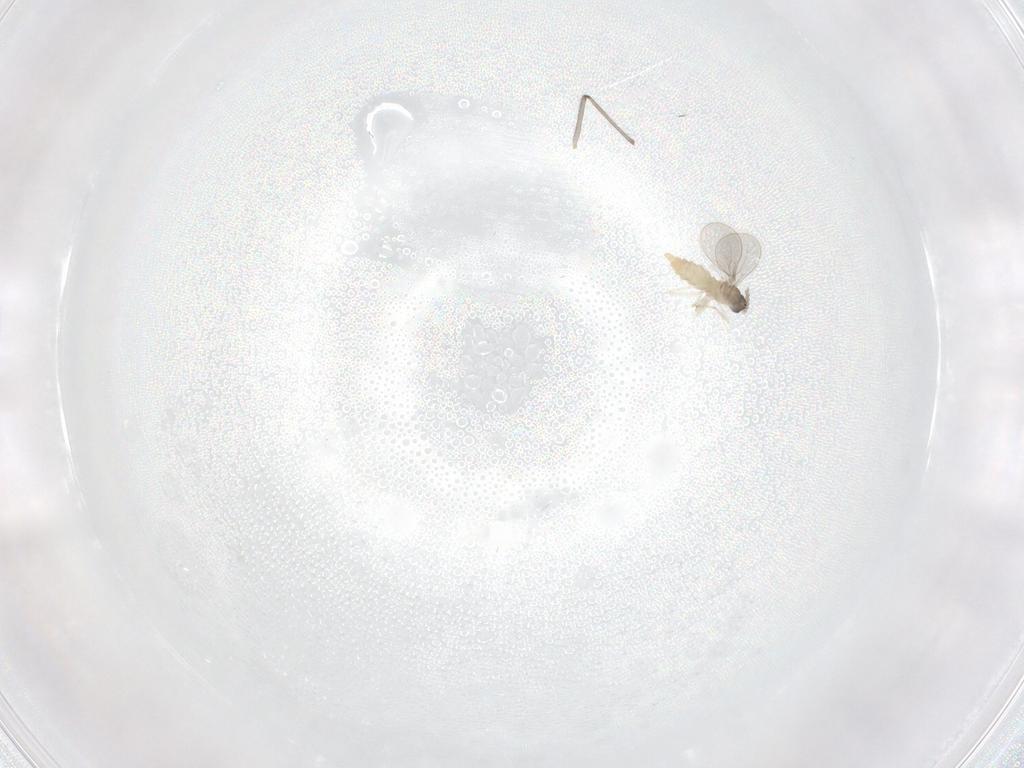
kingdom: Animalia
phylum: Arthropoda
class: Insecta
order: Diptera
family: Cecidomyiidae
